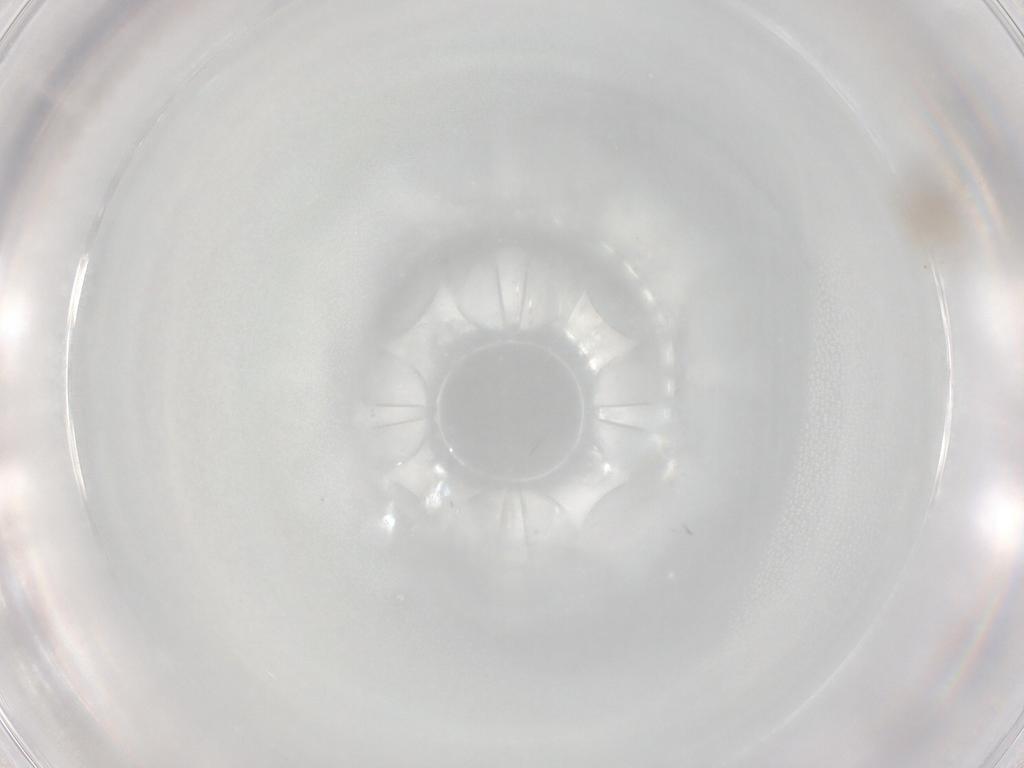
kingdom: Animalia
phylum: Arthropoda
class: Insecta
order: Hymenoptera
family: Aphelinidae
